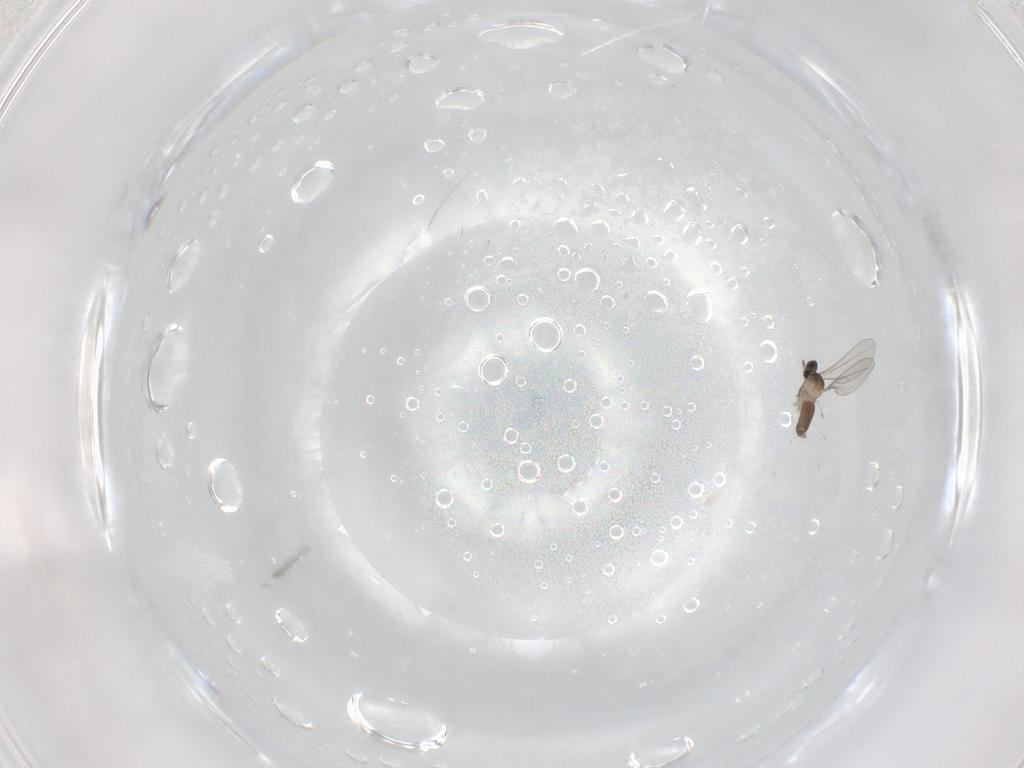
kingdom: Animalia
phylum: Arthropoda
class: Insecta
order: Diptera
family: Cecidomyiidae
